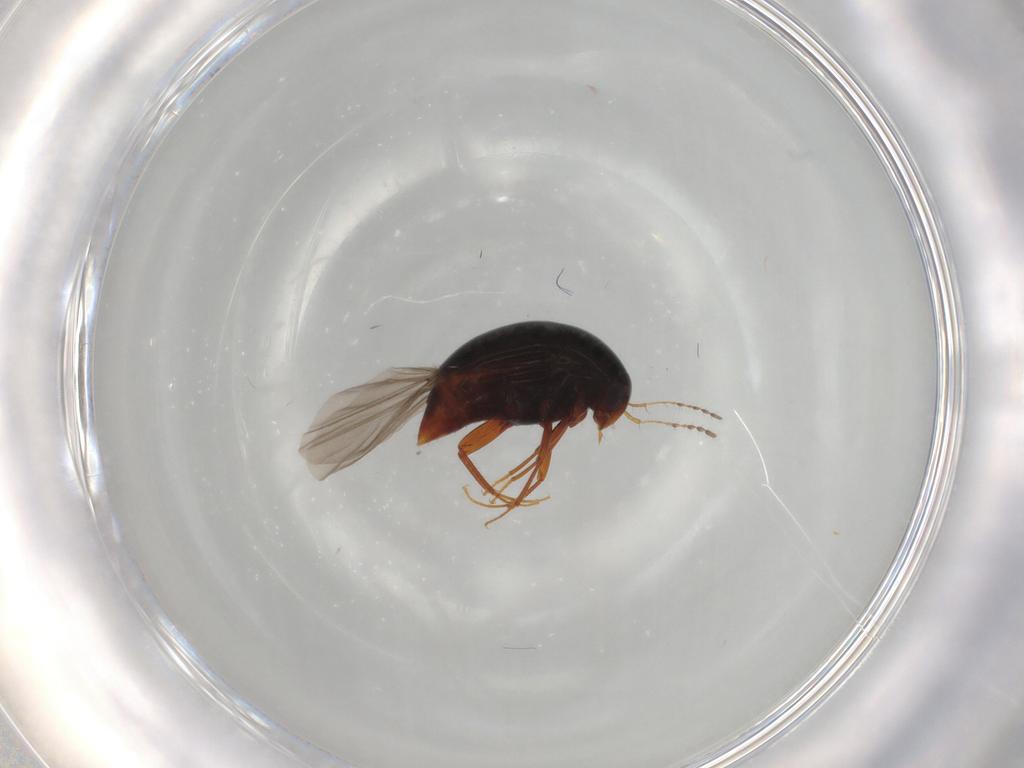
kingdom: Animalia
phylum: Arthropoda
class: Insecta
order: Coleoptera
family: Staphylinidae
